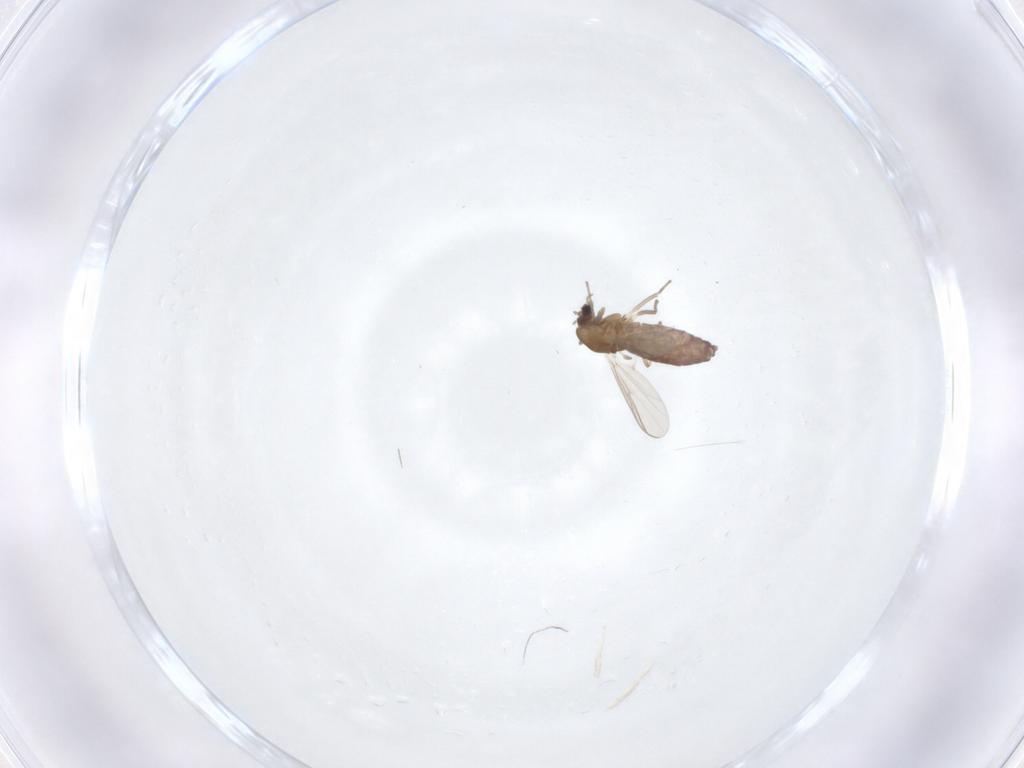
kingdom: Animalia
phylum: Arthropoda
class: Insecta
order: Diptera
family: Chironomidae
